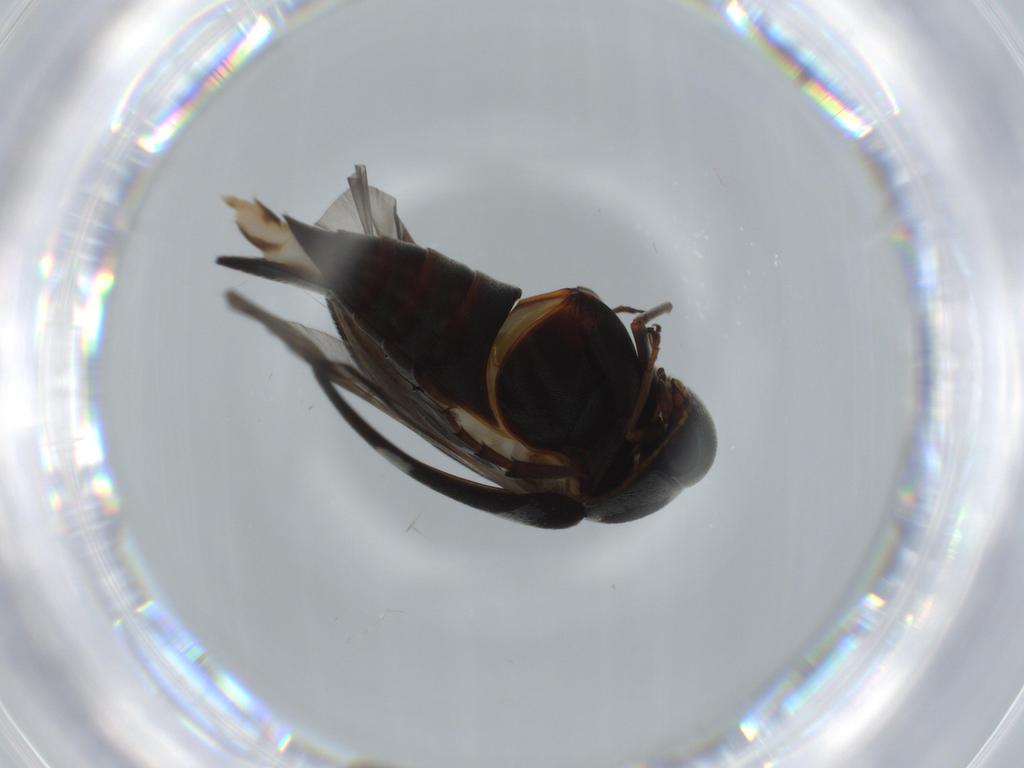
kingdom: Animalia
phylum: Arthropoda
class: Insecta
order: Coleoptera
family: Mordellidae
